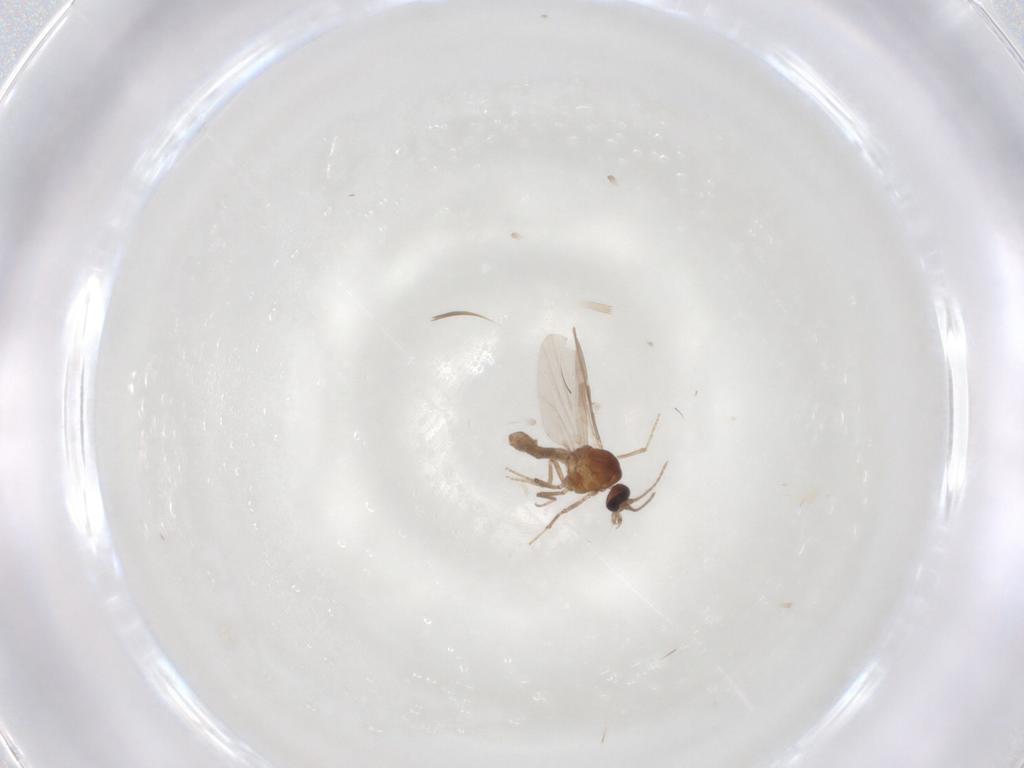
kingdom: Animalia
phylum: Arthropoda
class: Insecta
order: Diptera
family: Ceratopogonidae
